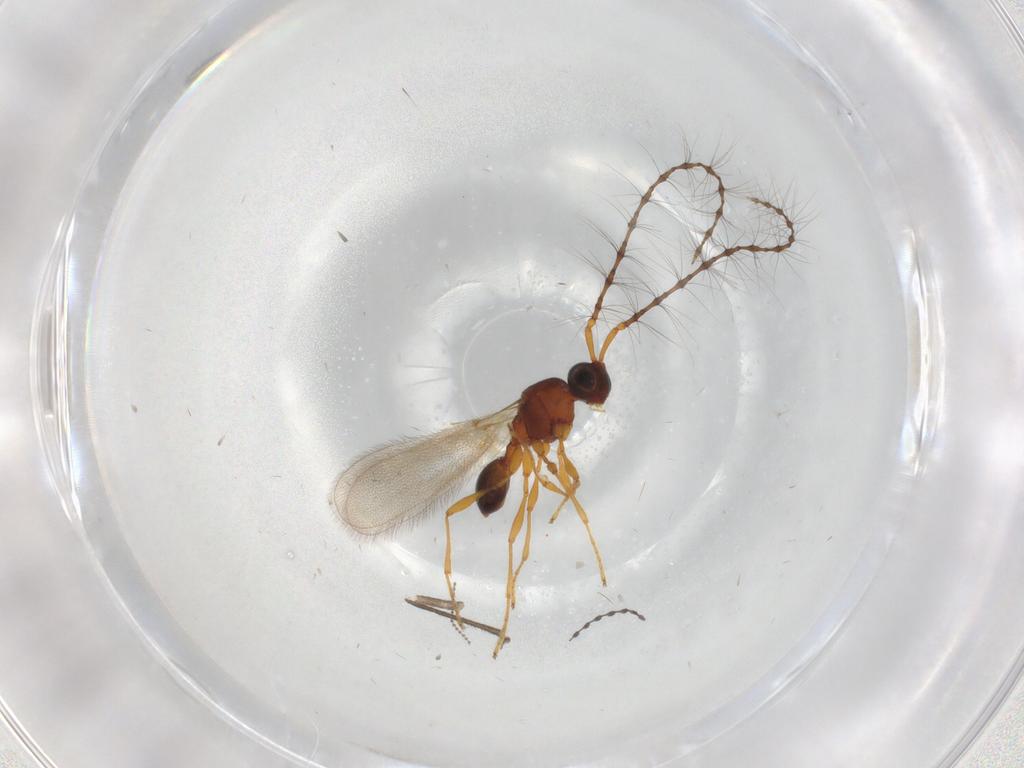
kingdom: Animalia
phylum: Arthropoda
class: Insecta
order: Hymenoptera
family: Diapriidae
